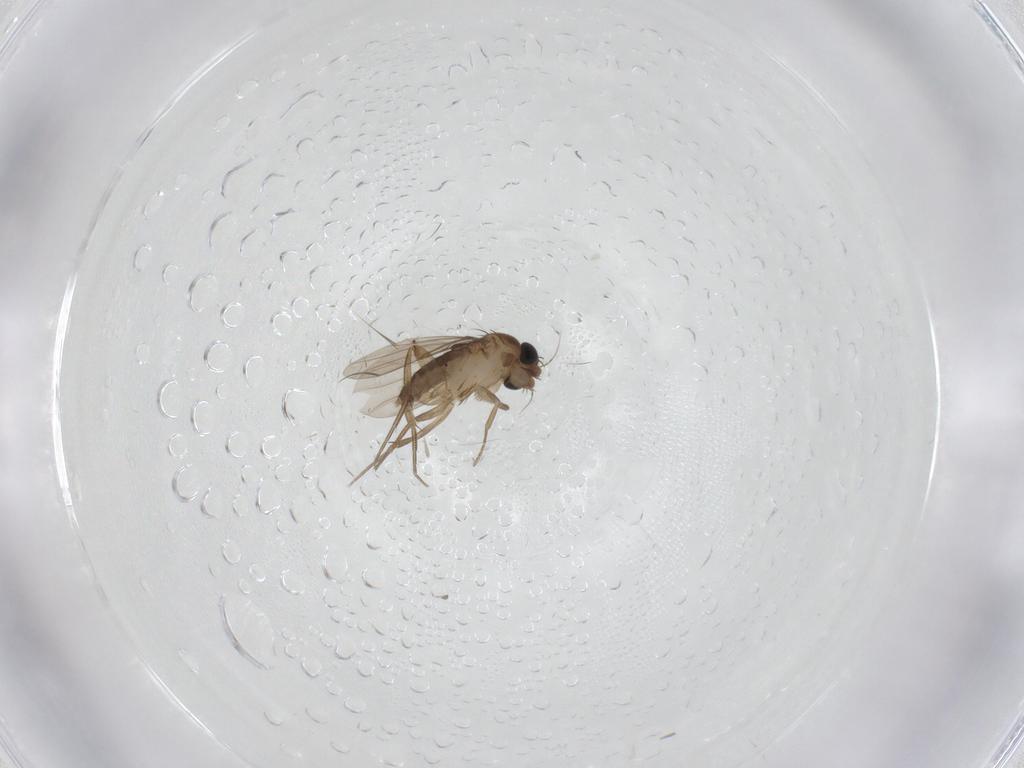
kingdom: Animalia
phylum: Arthropoda
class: Insecta
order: Diptera
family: Phoridae
